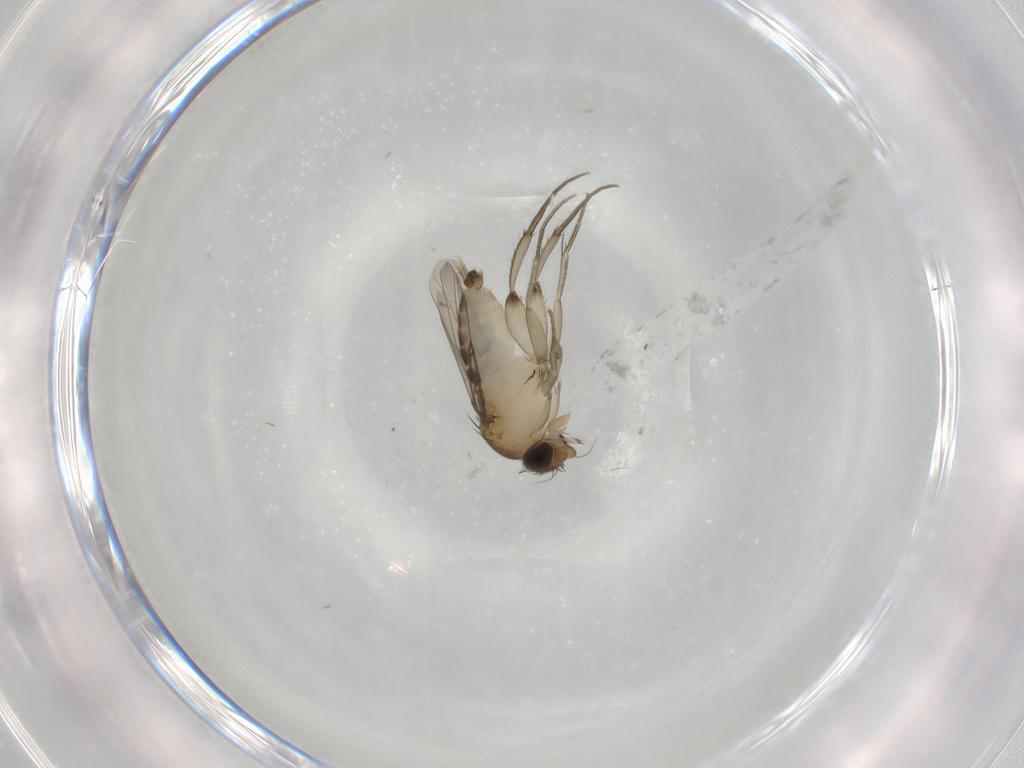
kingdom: Animalia
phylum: Arthropoda
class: Insecta
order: Diptera
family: Phoridae
